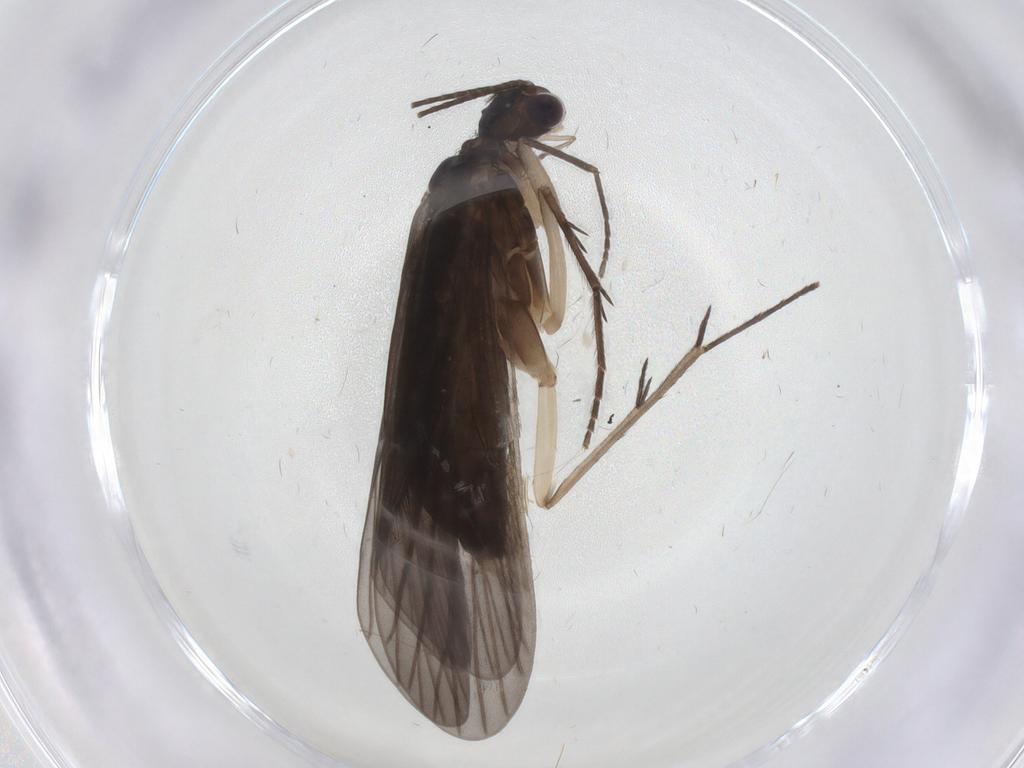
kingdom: Animalia
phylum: Arthropoda
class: Insecta
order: Trichoptera
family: Philopotamidae
